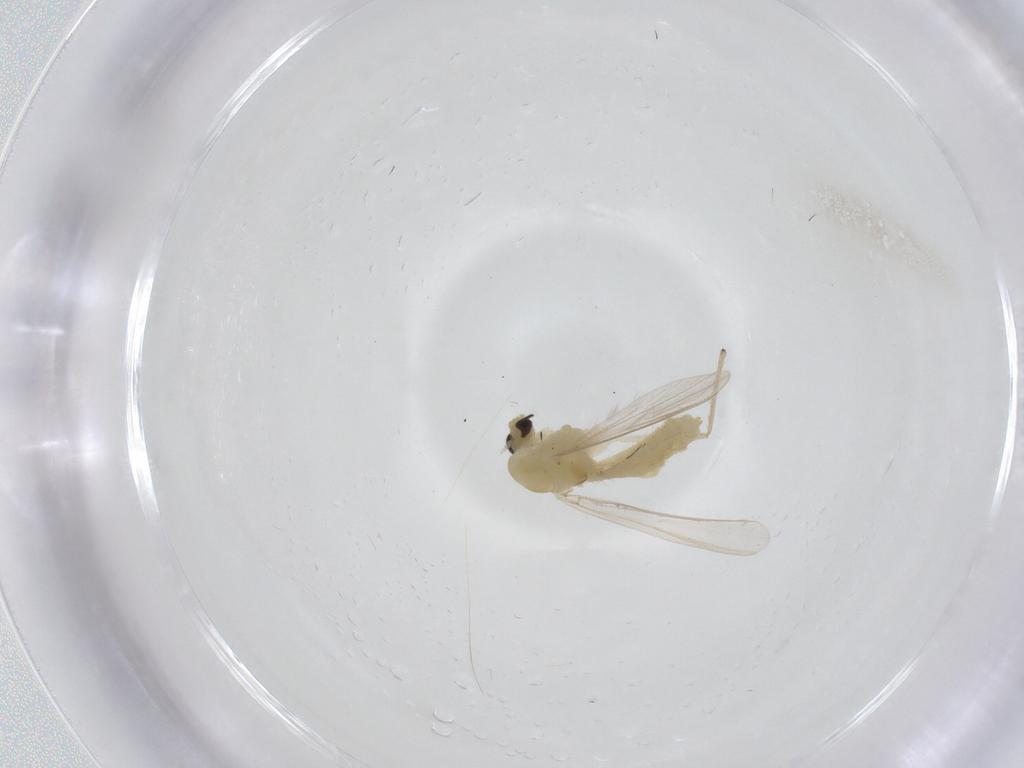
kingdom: Animalia
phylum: Arthropoda
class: Insecta
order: Diptera
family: Chironomidae
